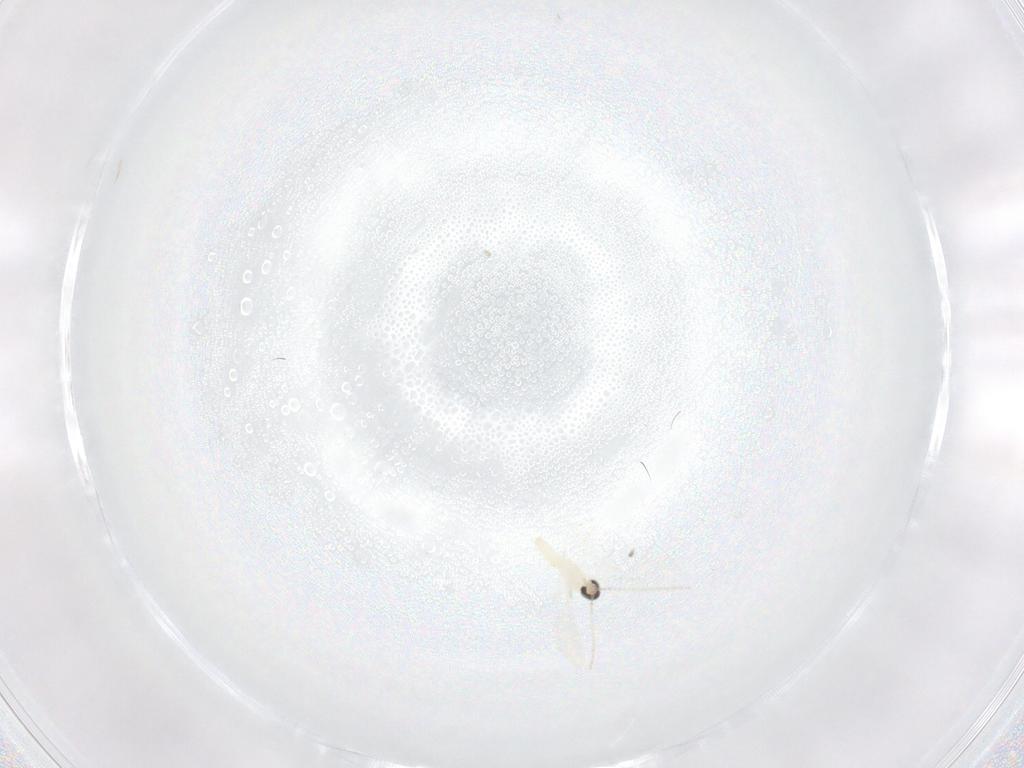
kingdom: Animalia
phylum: Arthropoda
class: Insecta
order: Diptera
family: Cecidomyiidae
